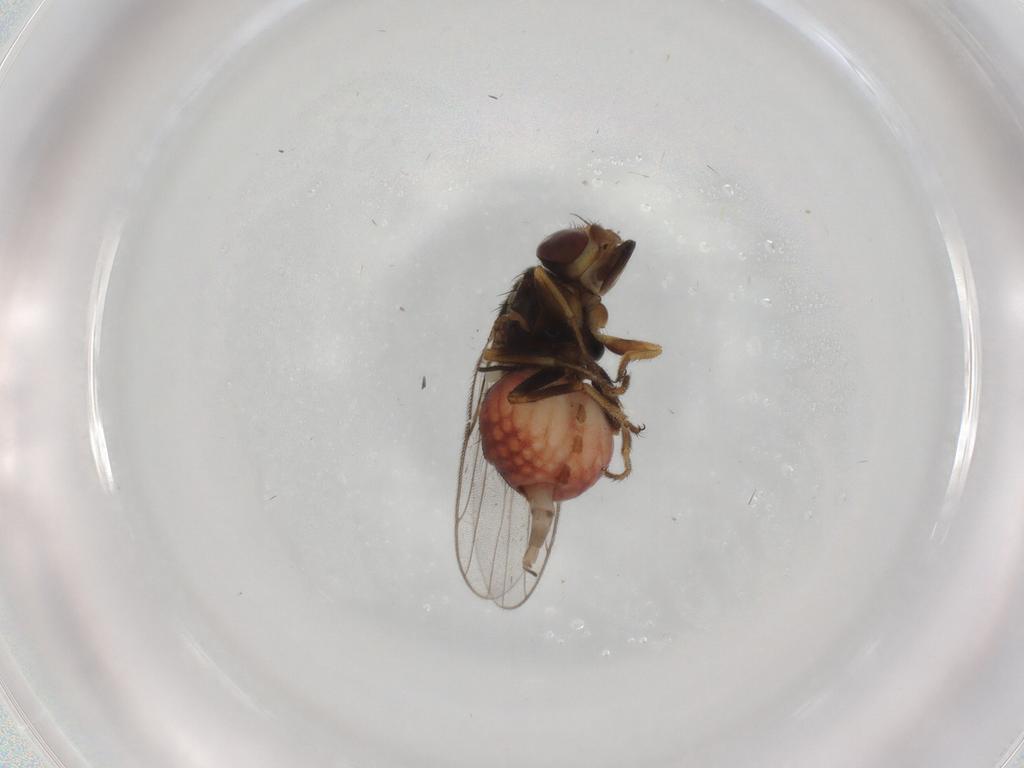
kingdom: Animalia
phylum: Arthropoda
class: Insecta
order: Diptera
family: Chloropidae
